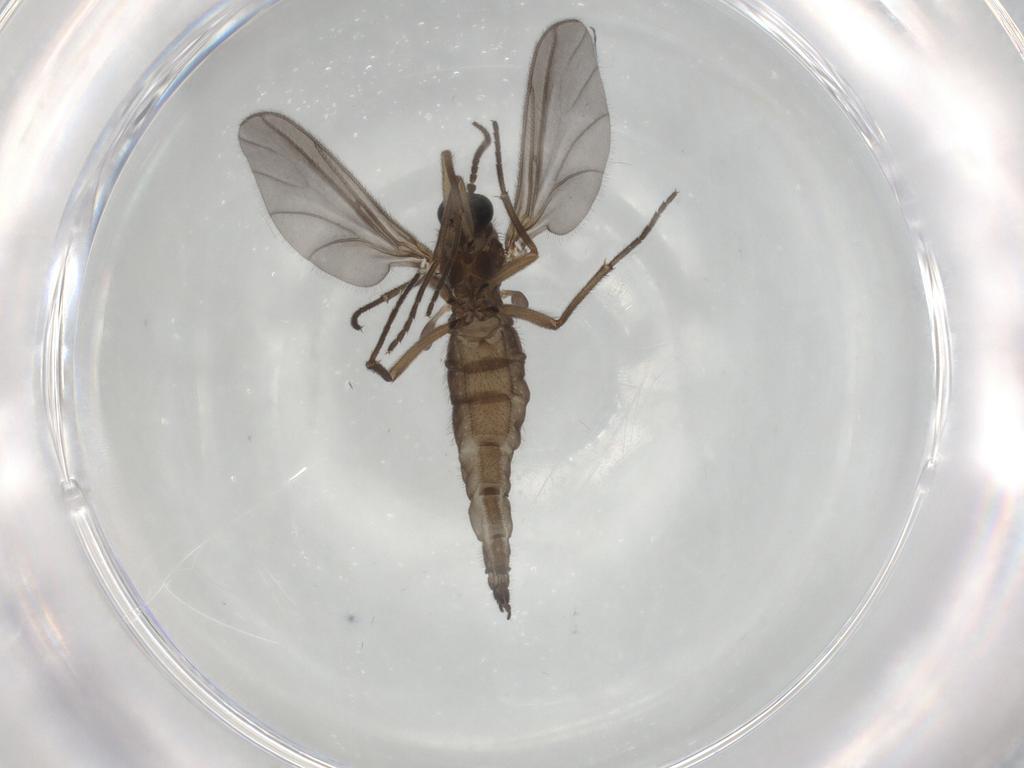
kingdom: Animalia
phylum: Arthropoda
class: Insecta
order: Diptera
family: Sciaridae
